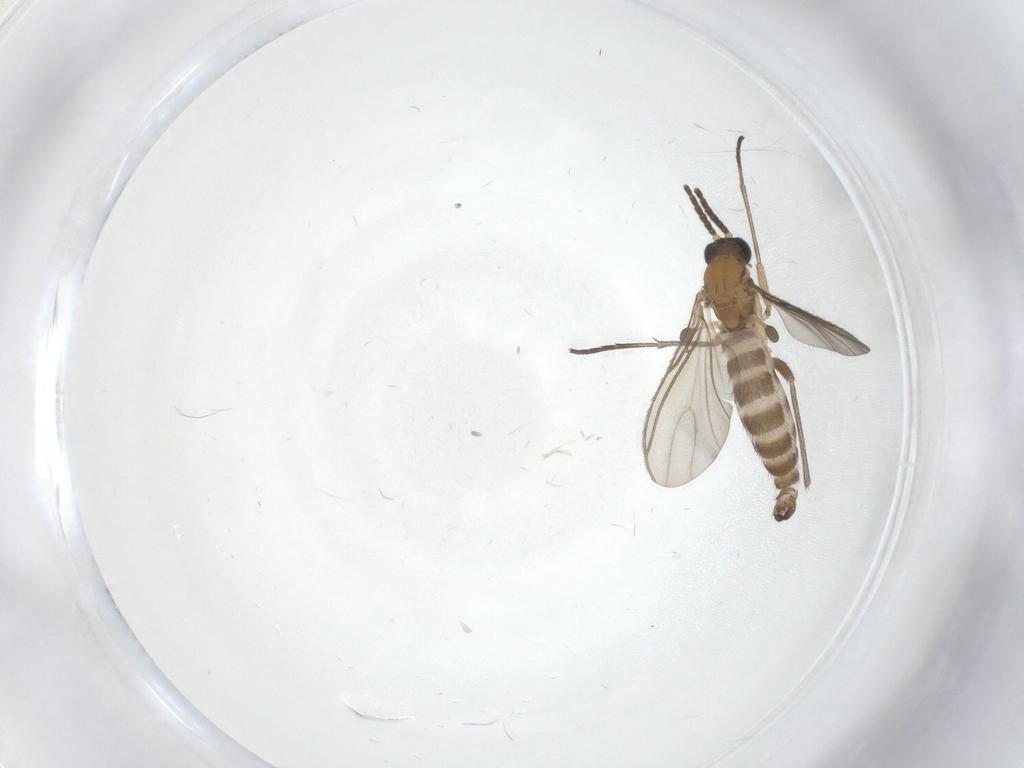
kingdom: Animalia
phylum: Arthropoda
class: Insecta
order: Diptera
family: Sciaridae
